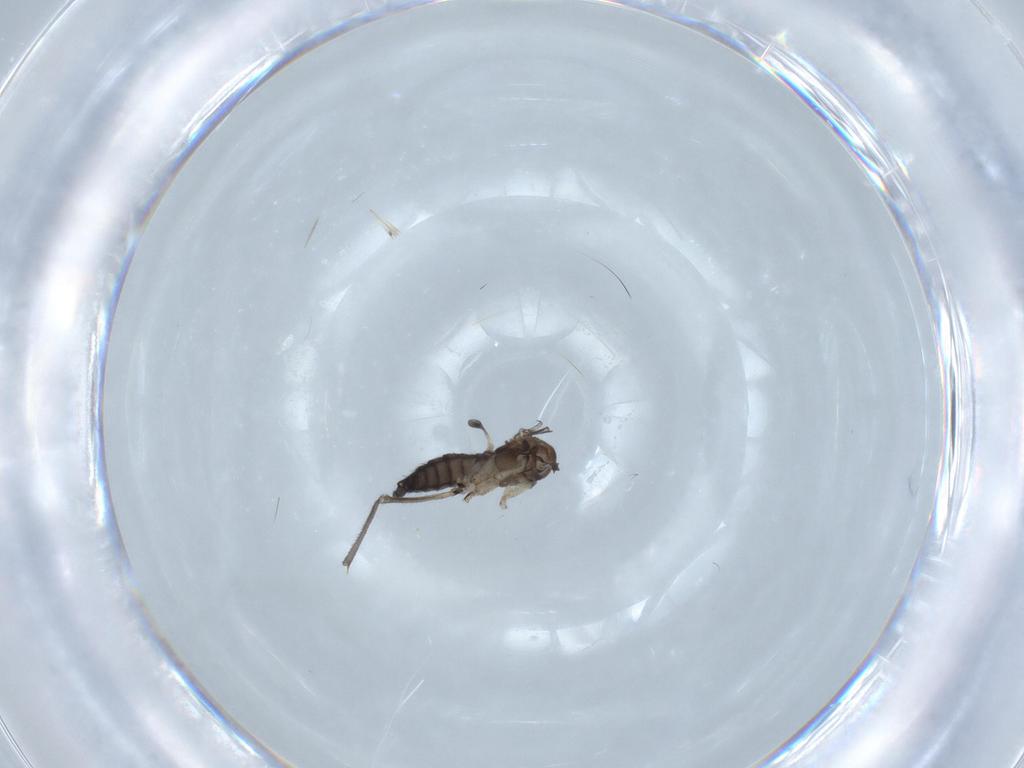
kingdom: Animalia
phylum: Arthropoda
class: Insecta
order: Diptera
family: Sciaridae
